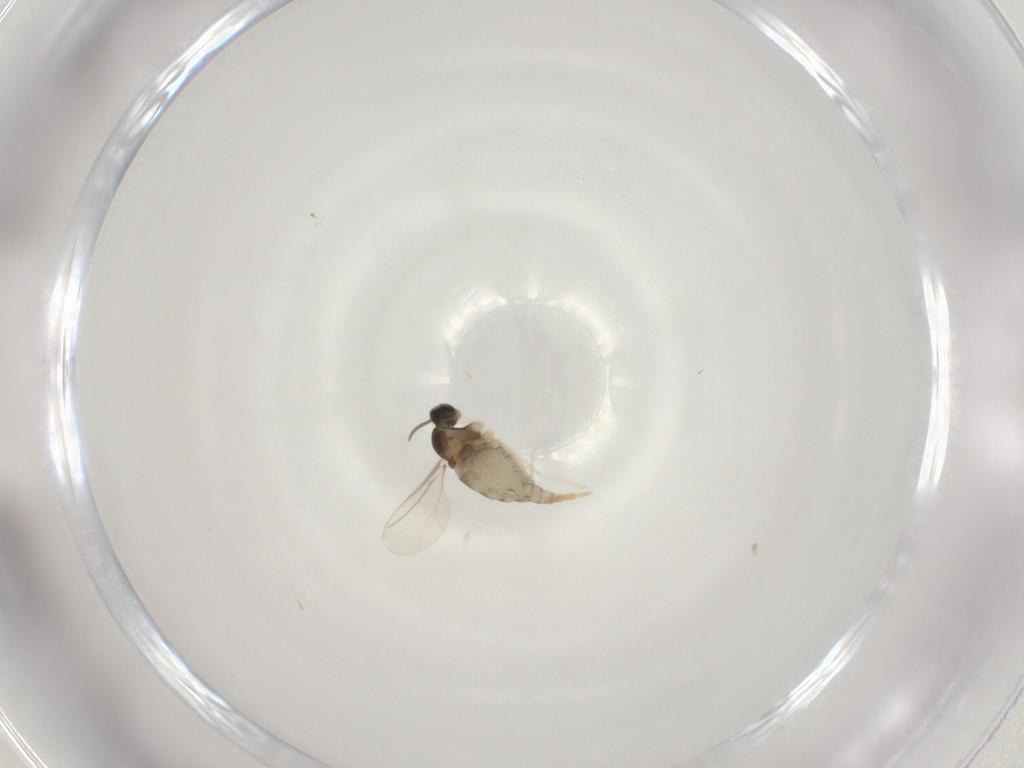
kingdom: Animalia
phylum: Arthropoda
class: Insecta
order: Diptera
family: Cecidomyiidae
